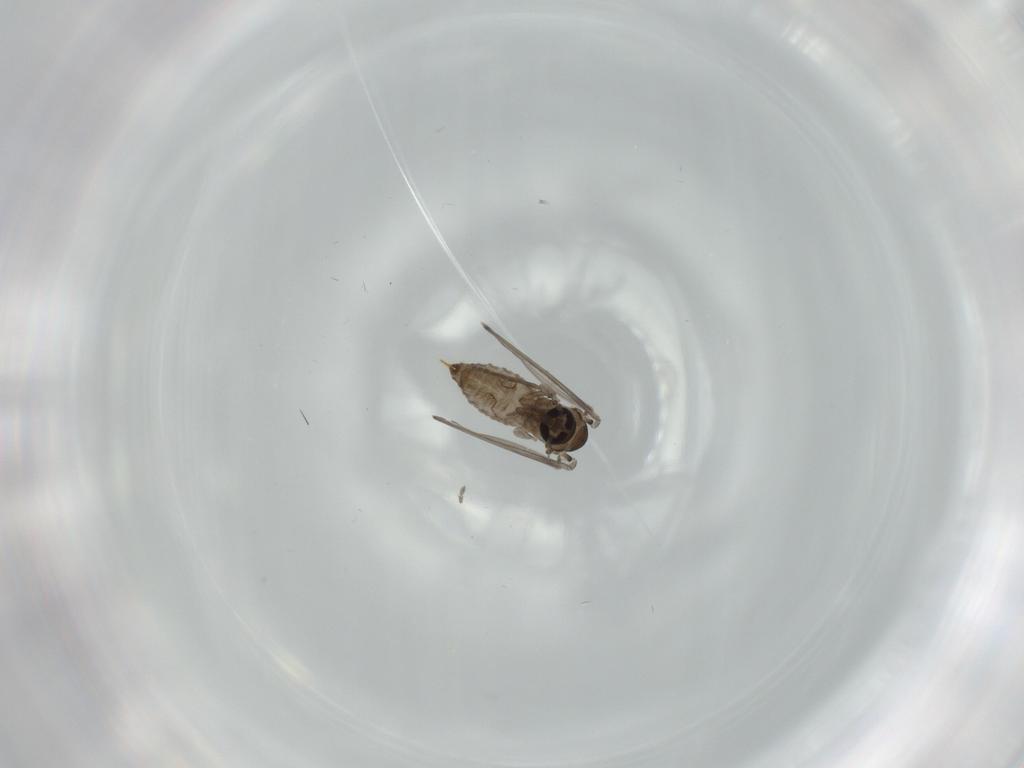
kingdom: Animalia
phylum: Arthropoda
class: Insecta
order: Diptera
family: Psychodidae
